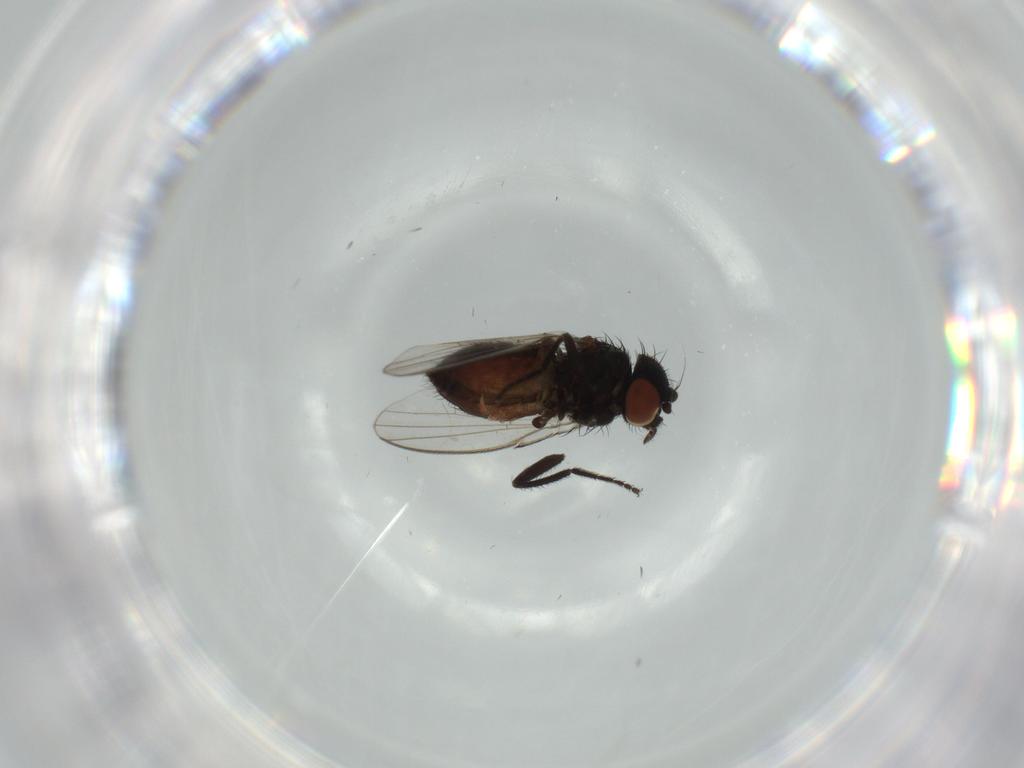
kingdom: Animalia
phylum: Arthropoda
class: Insecta
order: Diptera
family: Milichiidae
